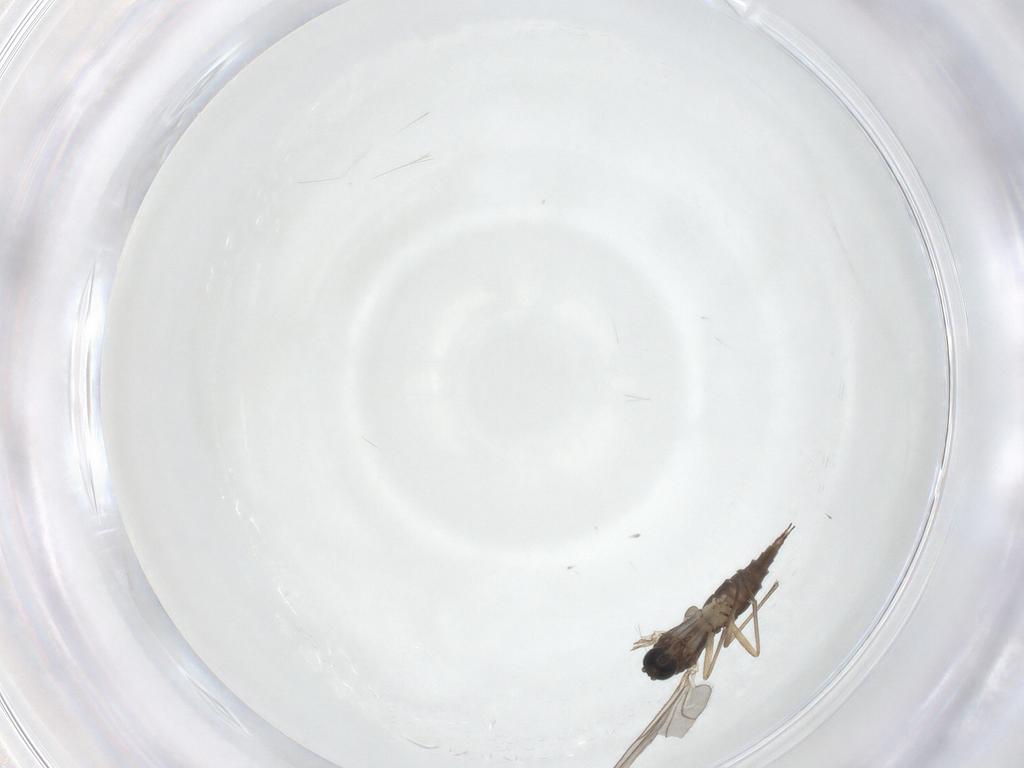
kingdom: Animalia
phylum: Arthropoda
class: Insecta
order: Diptera
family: Sciaridae
